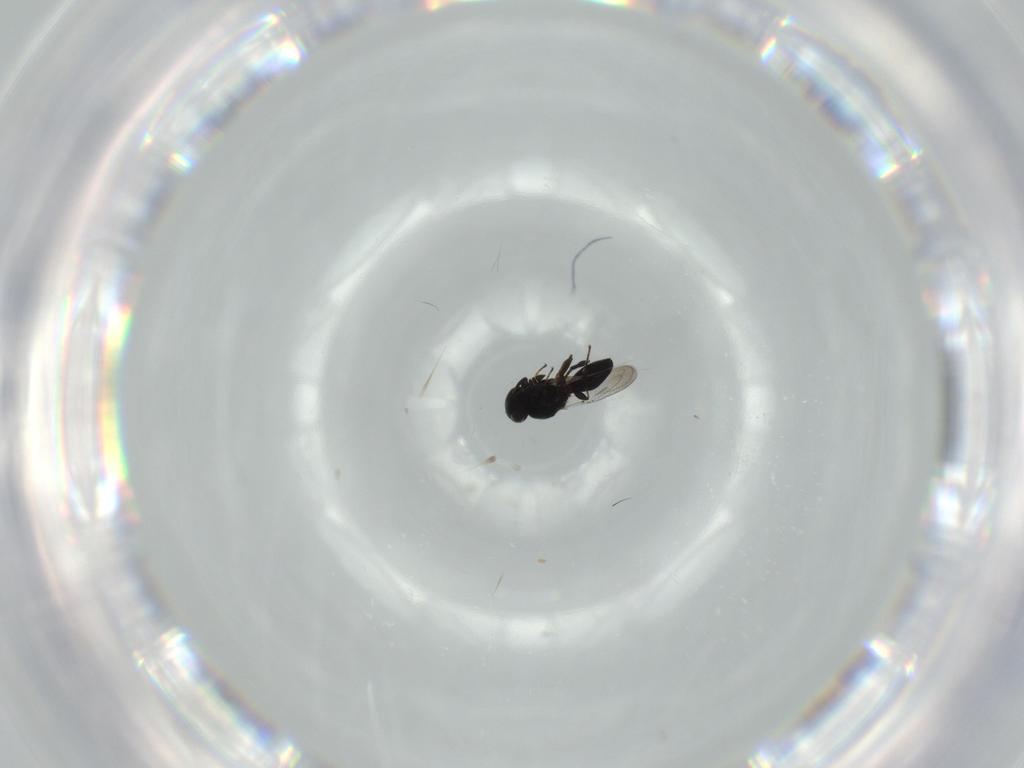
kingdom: Animalia
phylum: Arthropoda
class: Insecta
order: Hymenoptera
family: Platygastridae
